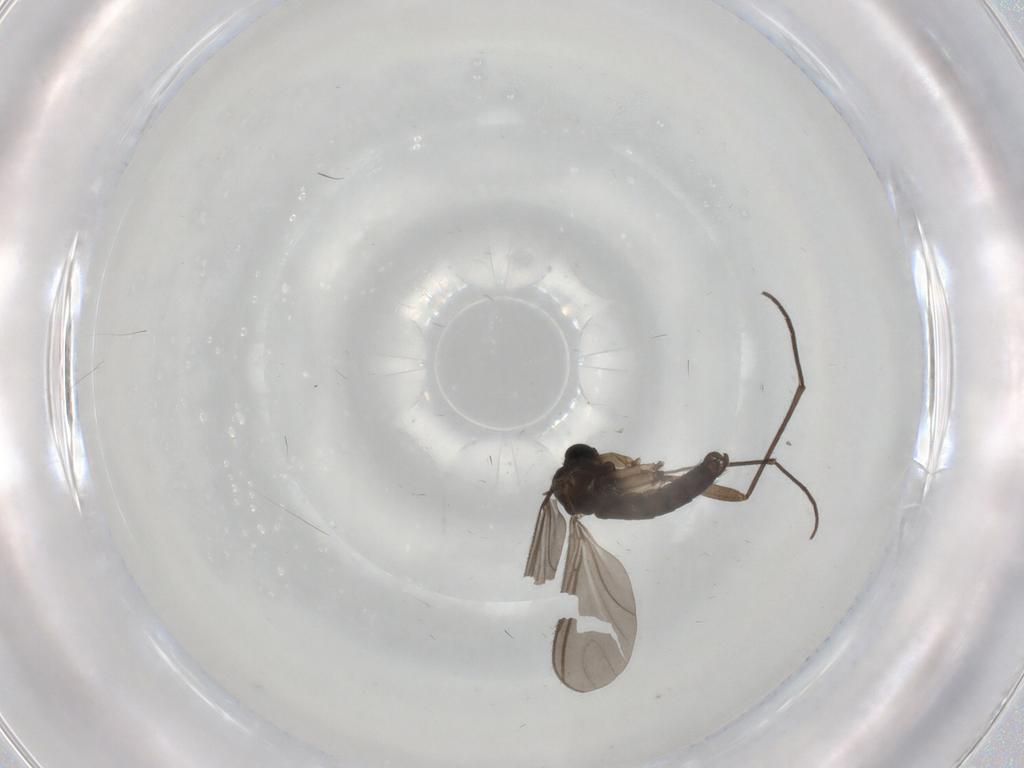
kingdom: Animalia
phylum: Arthropoda
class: Insecta
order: Diptera
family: Sciaridae
